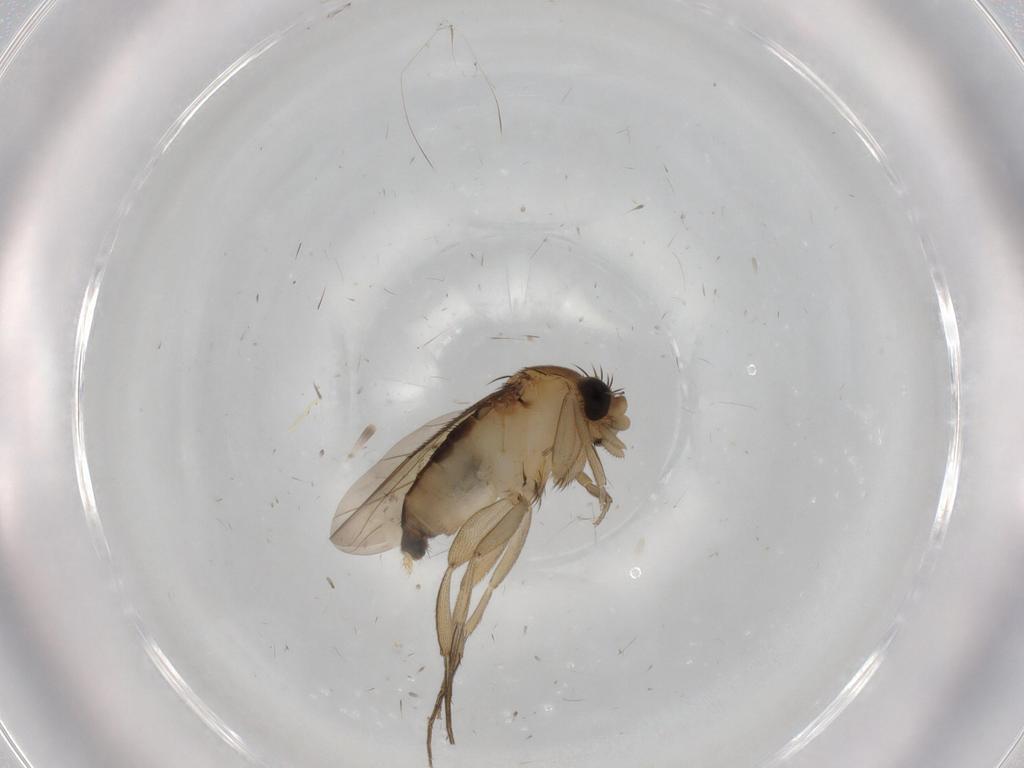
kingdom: Animalia
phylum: Arthropoda
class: Insecta
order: Diptera
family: Phoridae
